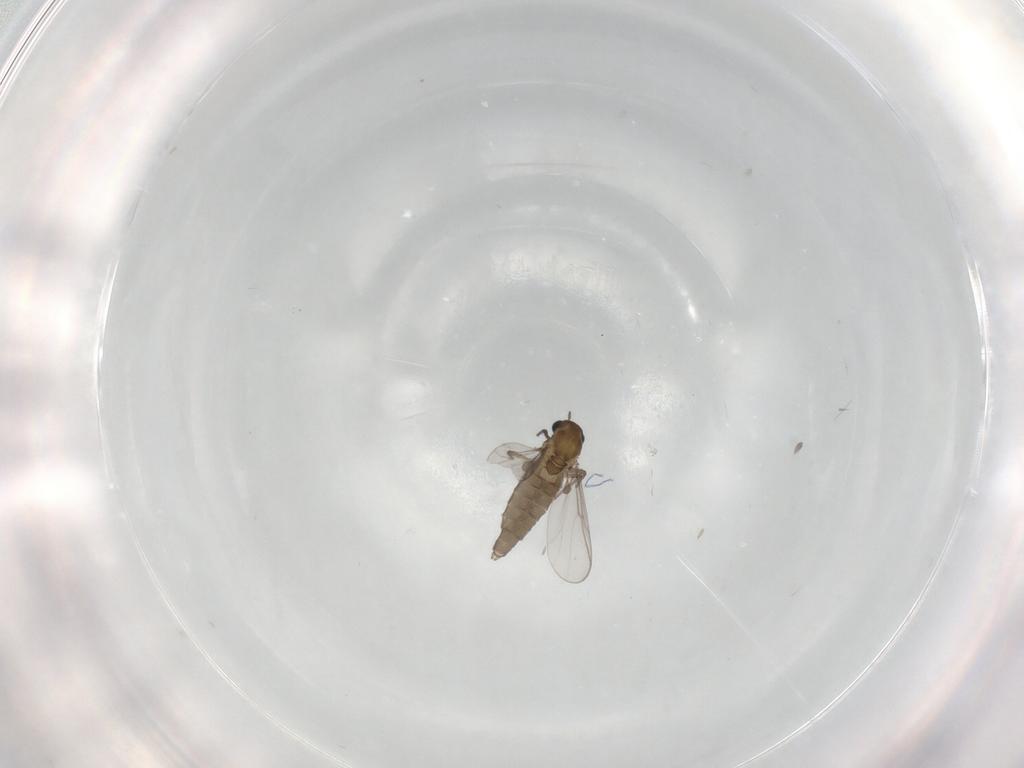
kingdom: Animalia
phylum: Arthropoda
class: Insecta
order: Diptera
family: Chironomidae
